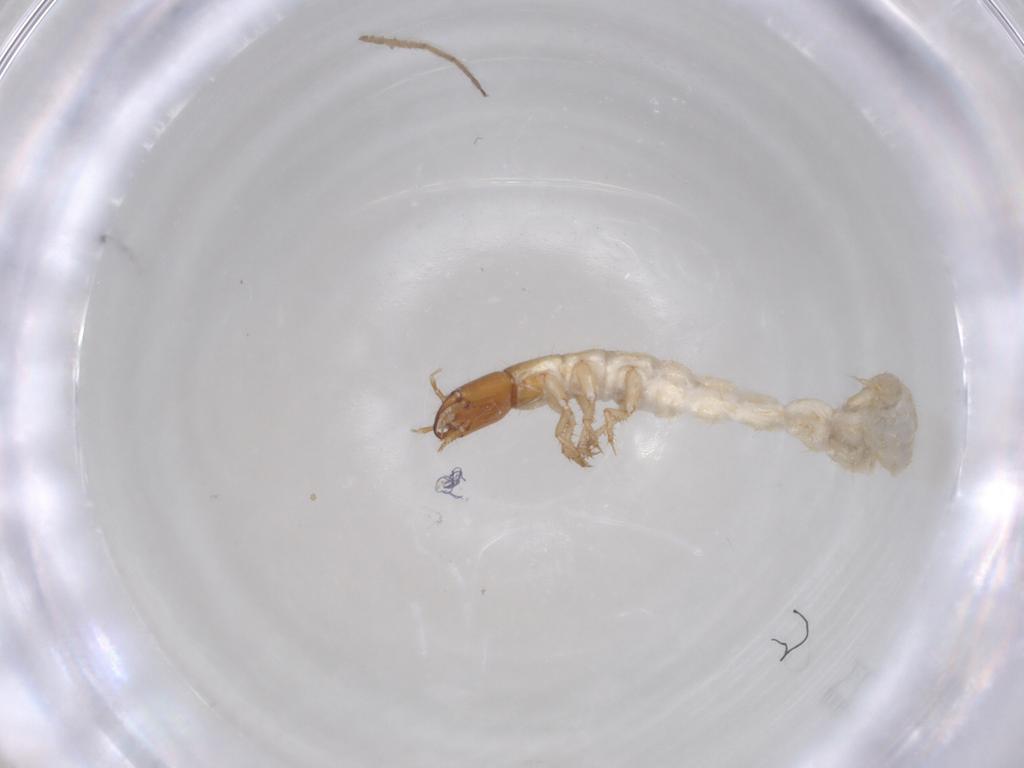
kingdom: Animalia
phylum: Arthropoda
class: Insecta
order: Coleoptera
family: Staphylinidae
